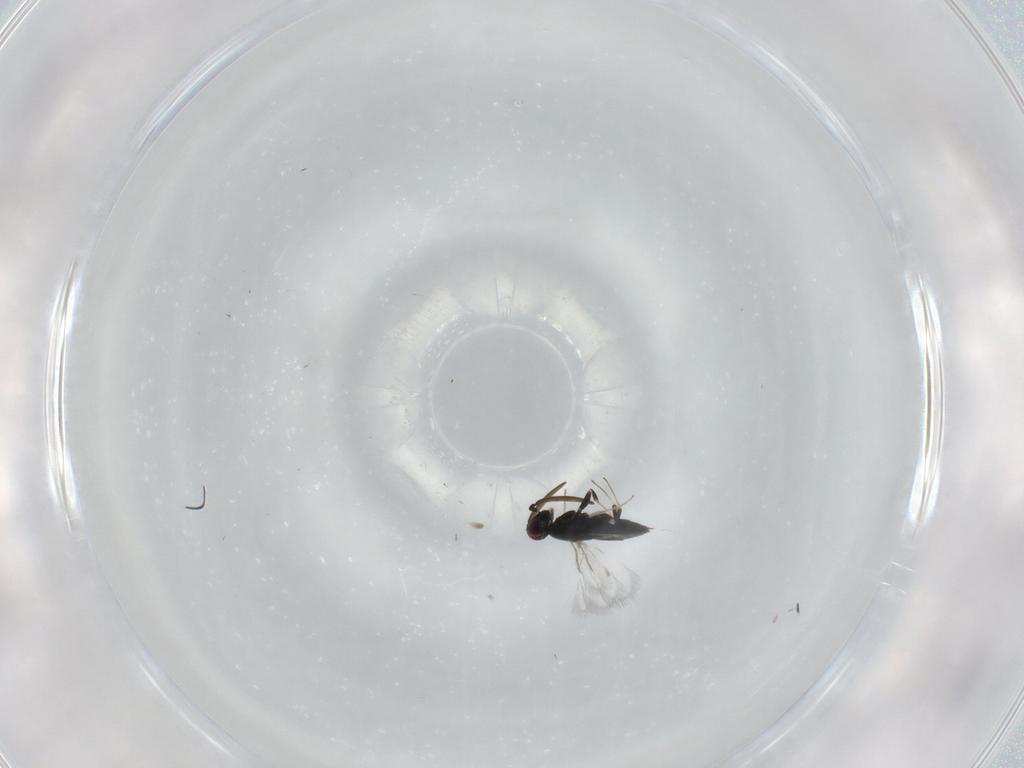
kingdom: Animalia
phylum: Arthropoda
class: Insecta
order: Hymenoptera
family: Signiphoridae
